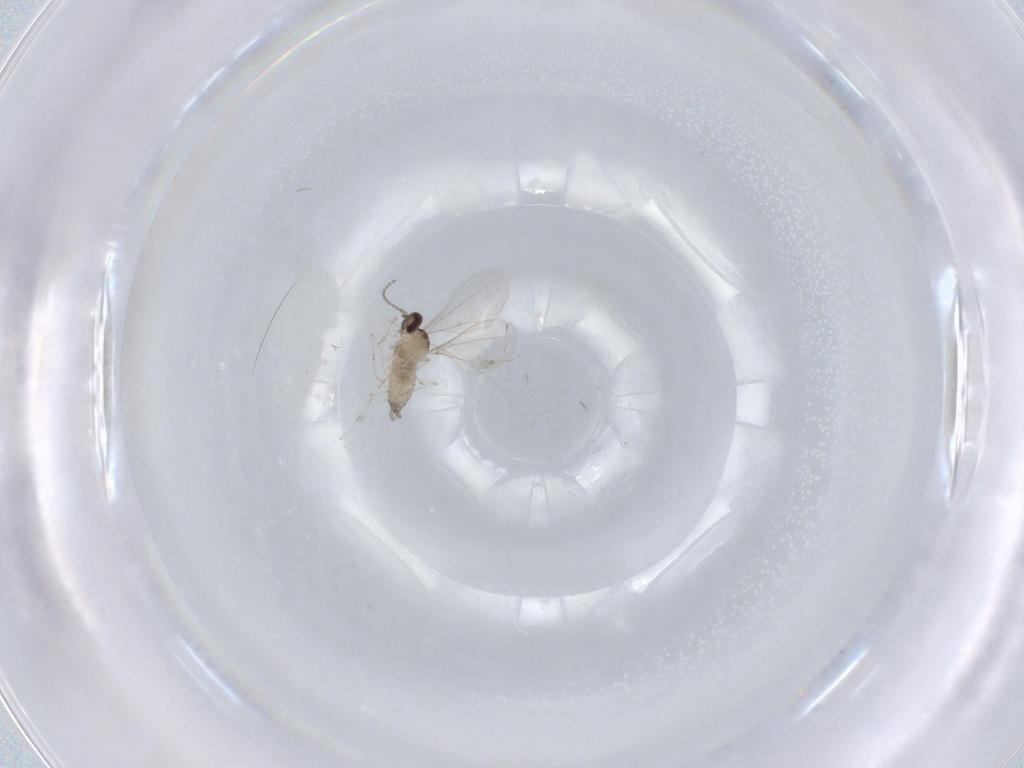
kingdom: Animalia
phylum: Arthropoda
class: Insecta
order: Diptera
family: Cecidomyiidae
